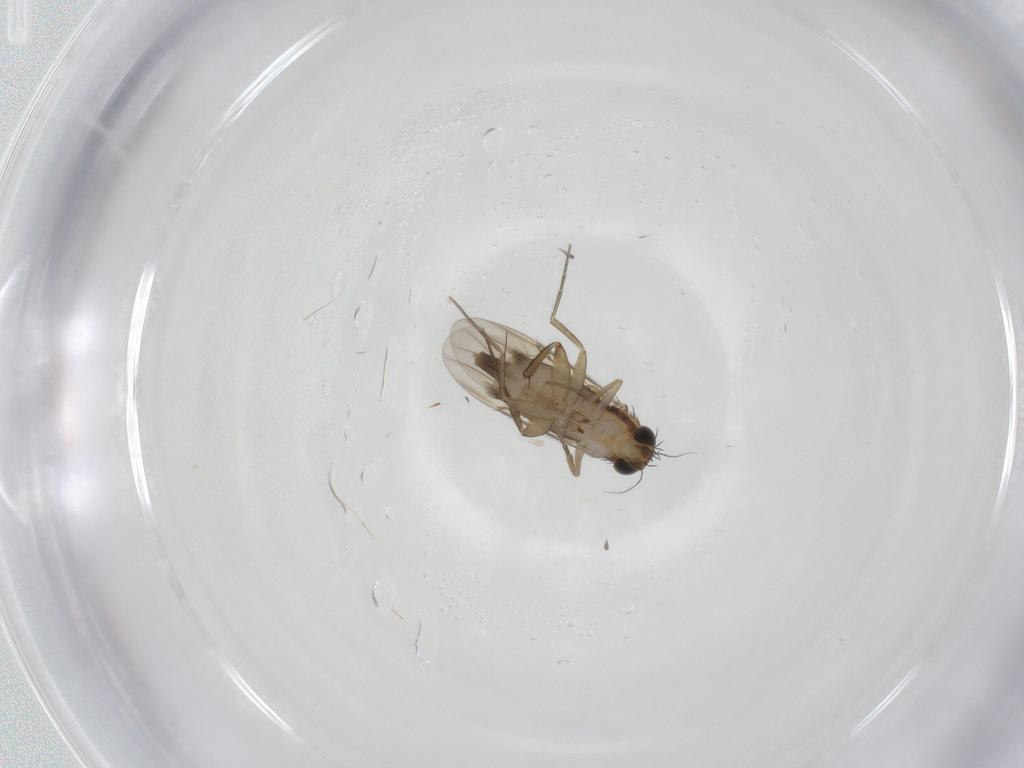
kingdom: Animalia
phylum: Arthropoda
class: Insecta
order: Diptera
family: Phoridae
